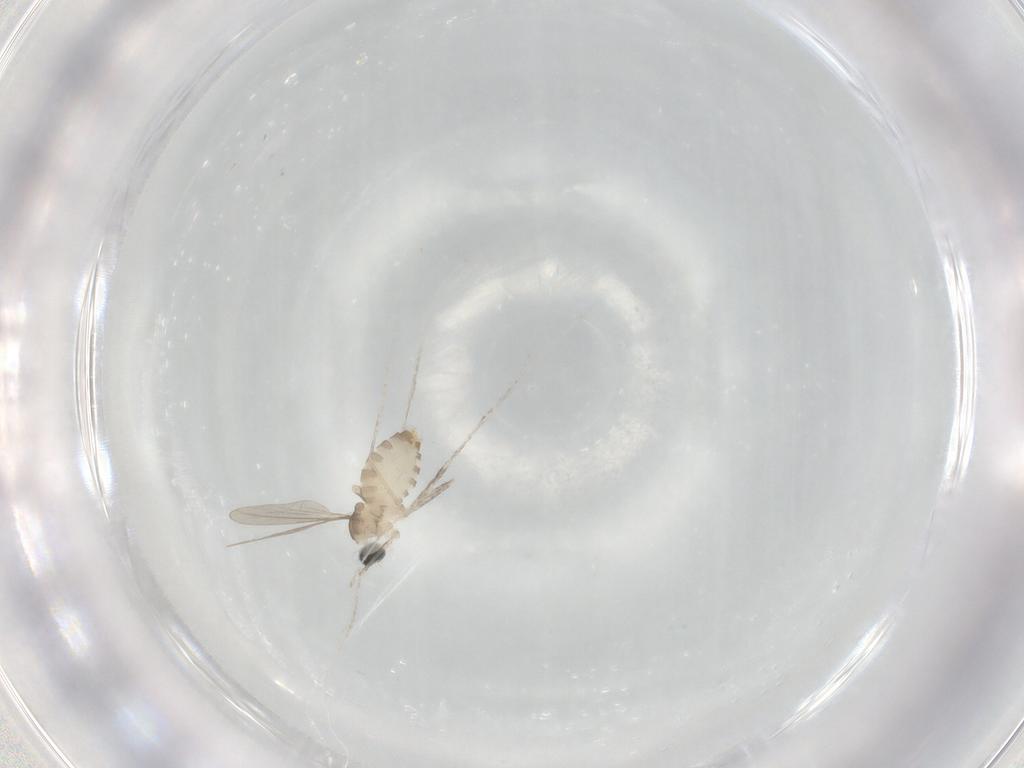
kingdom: Animalia
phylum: Arthropoda
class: Insecta
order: Diptera
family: Cecidomyiidae
